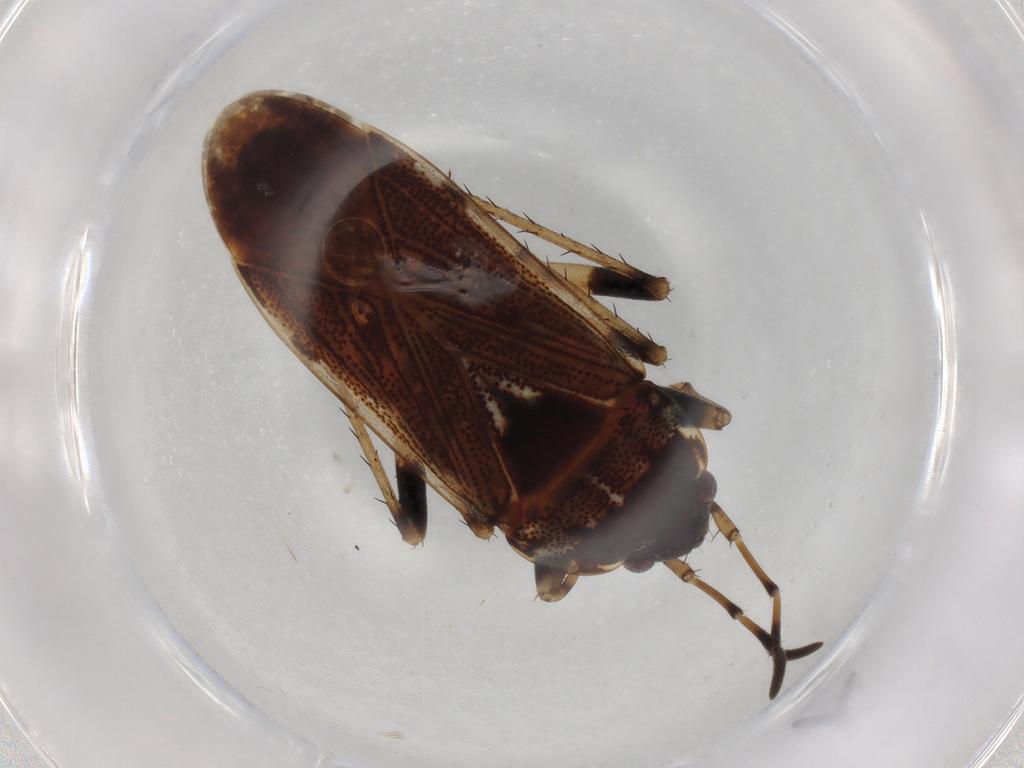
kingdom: Animalia
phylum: Arthropoda
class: Insecta
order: Hemiptera
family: Rhyparochromidae
